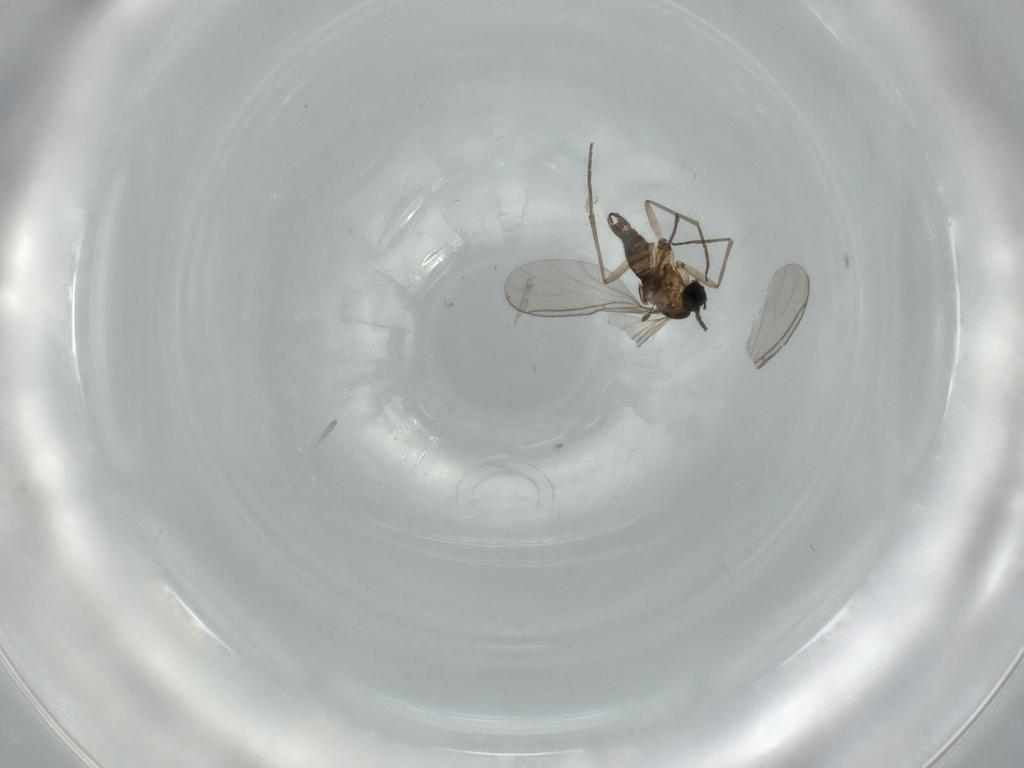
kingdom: Animalia
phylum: Arthropoda
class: Insecta
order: Diptera
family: Sciaridae
